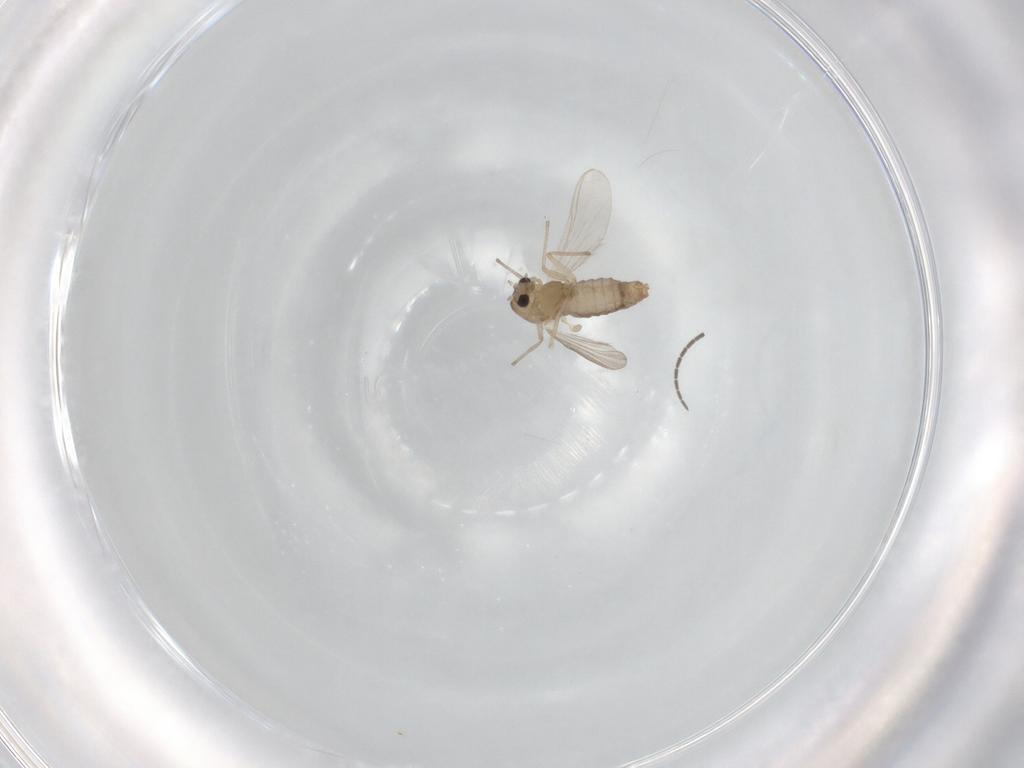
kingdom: Animalia
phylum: Arthropoda
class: Insecta
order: Diptera
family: Chironomidae
